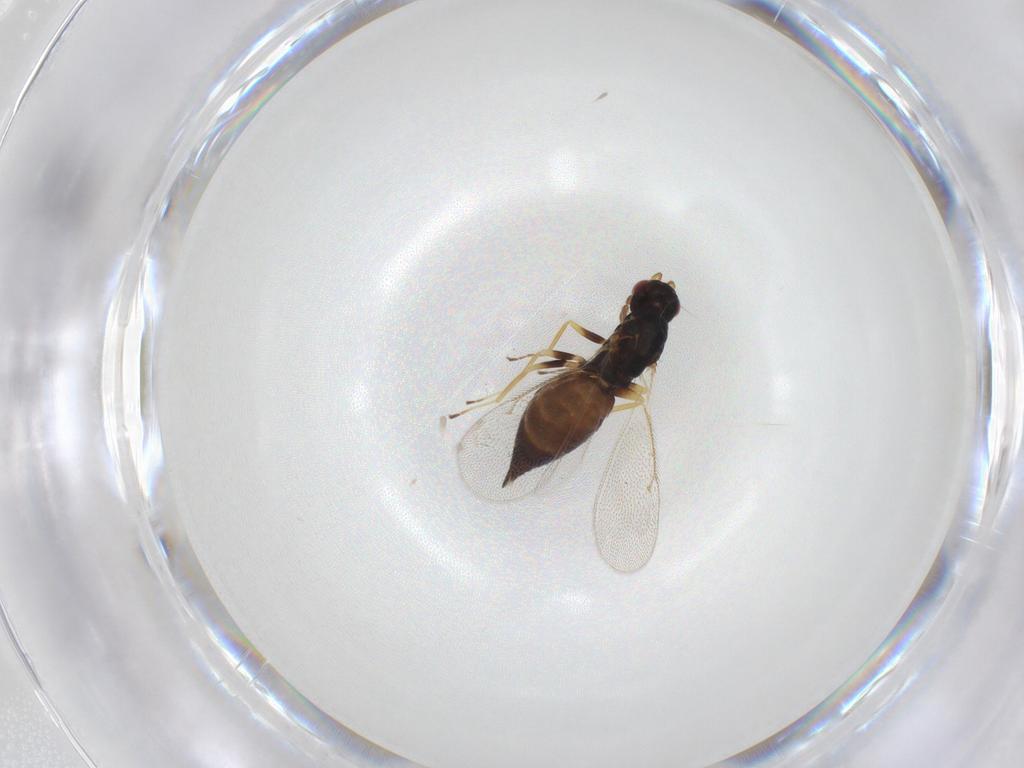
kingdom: Animalia
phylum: Arthropoda
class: Insecta
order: Hymenoptera
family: Eulophidae
